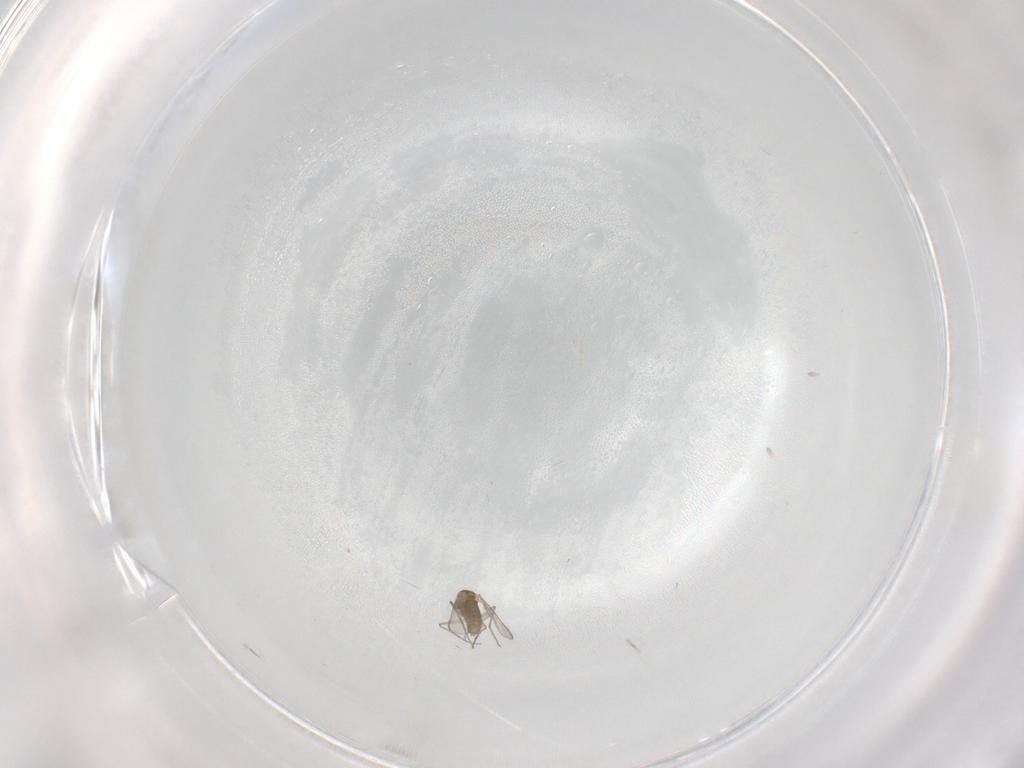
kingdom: Animalia
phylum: Arthropoda
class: Insecta
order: Diptera
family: Chironomidae
